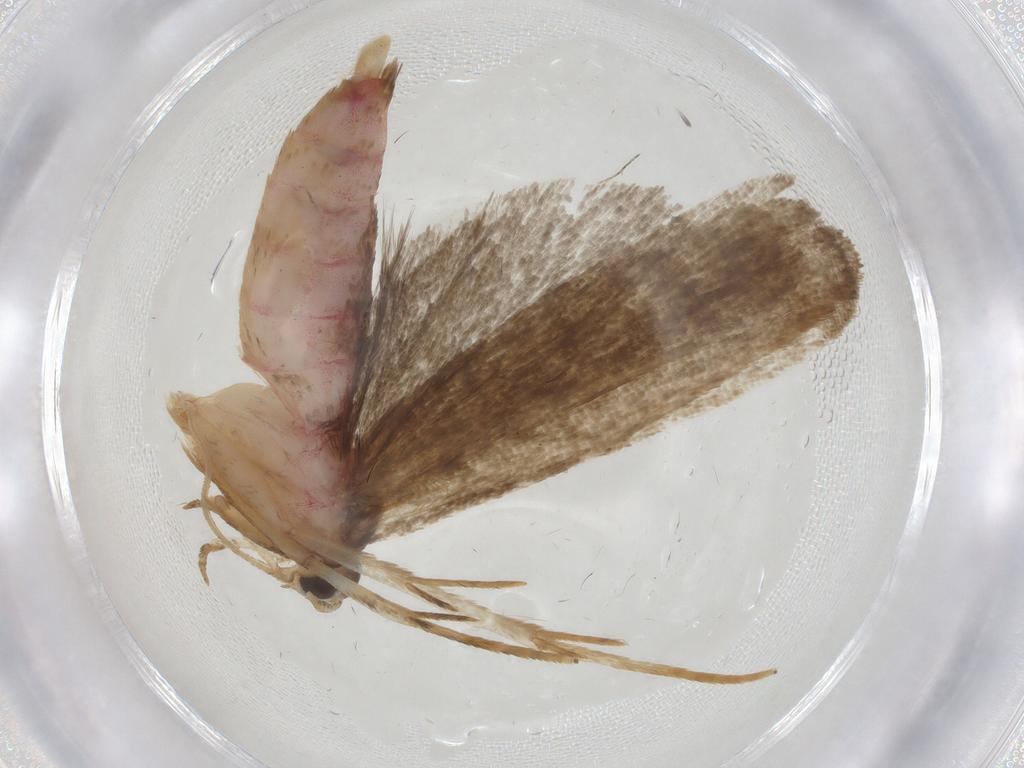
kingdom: Animalia
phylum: Arthropoda
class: Insecta
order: Lepidoptera
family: Autostichidae
